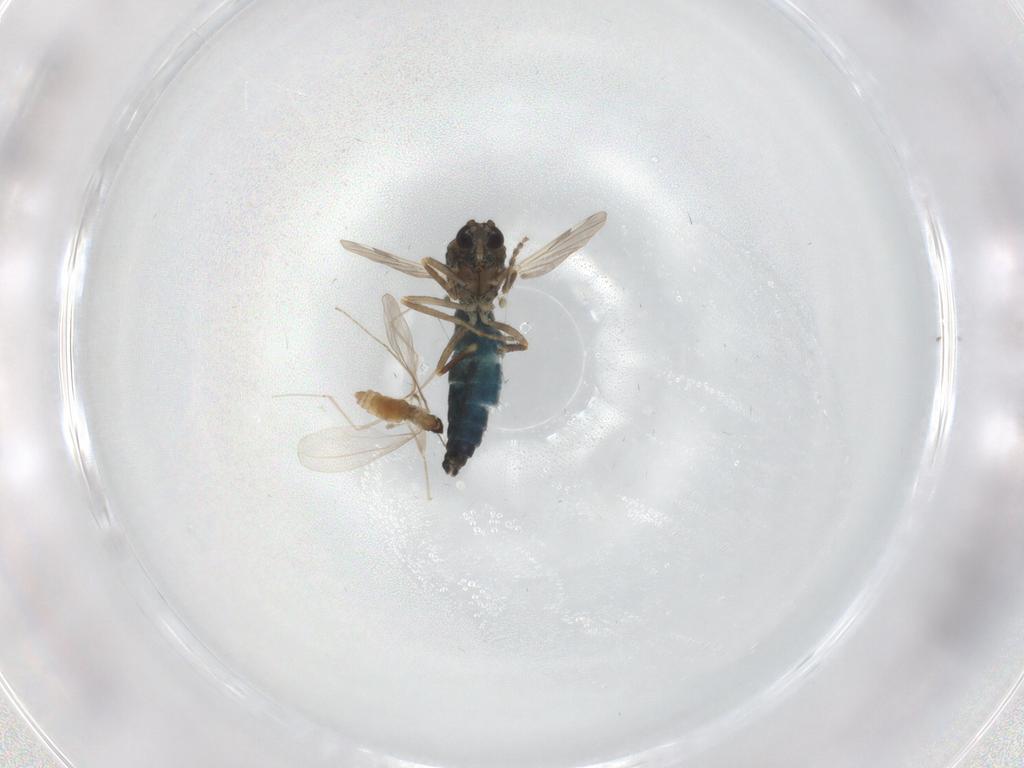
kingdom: Animalia
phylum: Arthropoda
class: Insecta
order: Diptera
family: Ceratopogonidae
